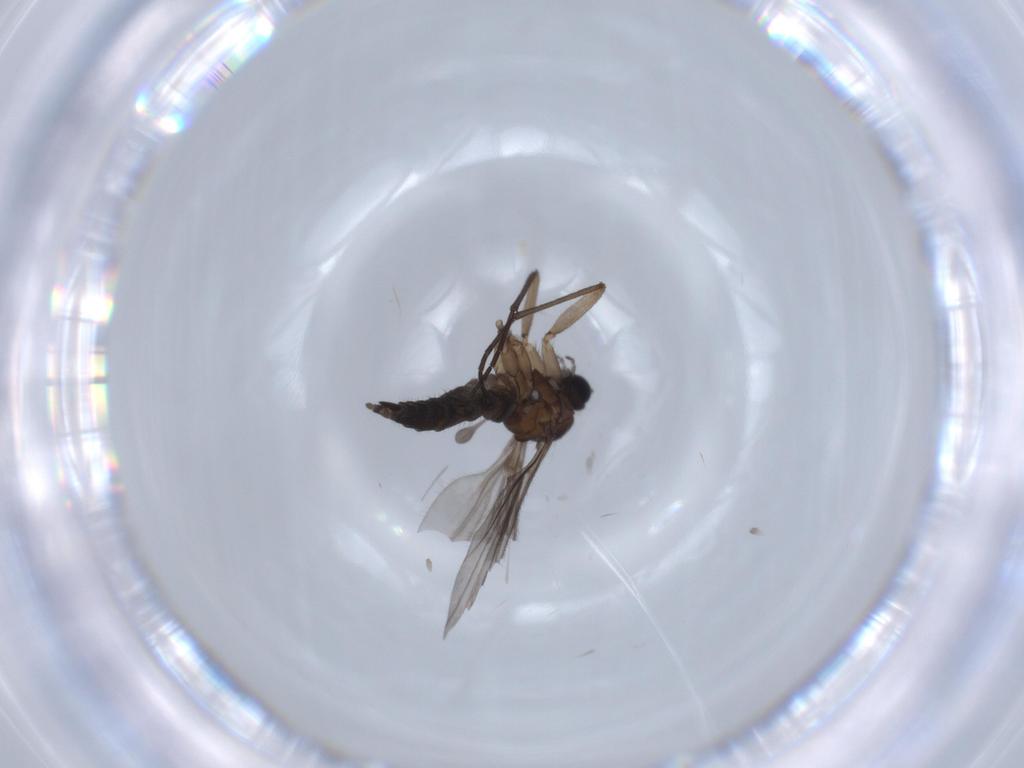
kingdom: Animalia
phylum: Arthropoda
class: Insecta
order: Diptera
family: Sciaridae
